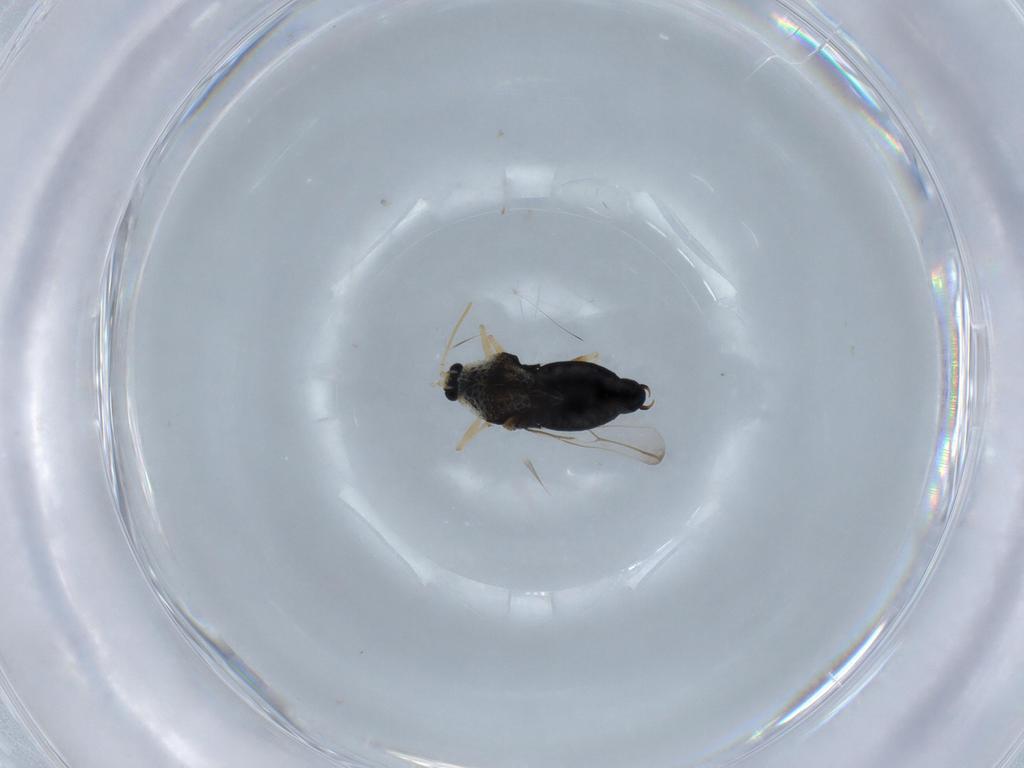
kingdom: Animalia
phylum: Arthropoda
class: Insecta
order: Hemiptera
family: Tingidae
